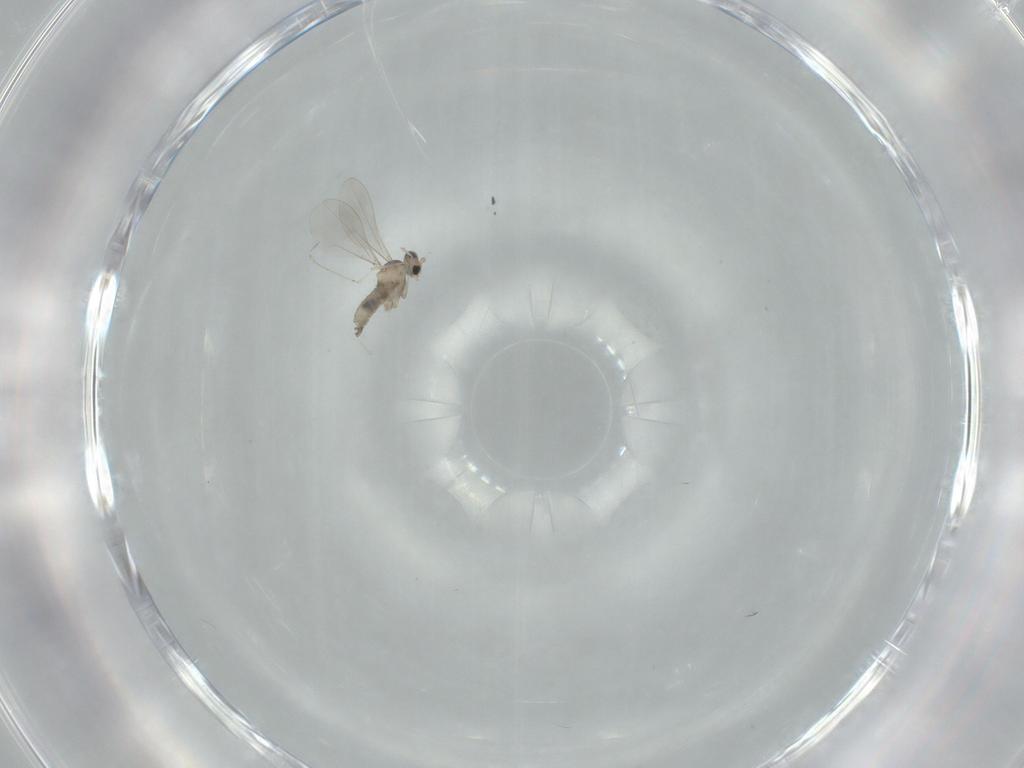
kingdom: Animalia
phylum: Arthropoda
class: Insecta
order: Diptera
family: Cecidomyiidae
